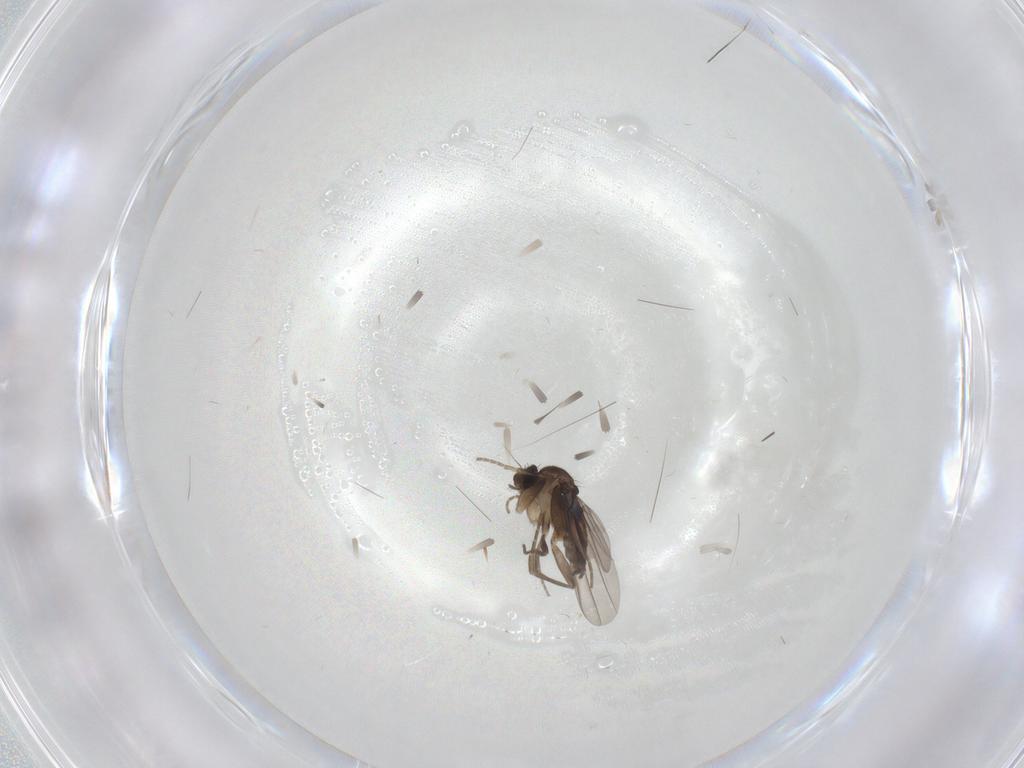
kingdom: Animalia
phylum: Arthropoda
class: Insecta
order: Diptera
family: Phoridae
